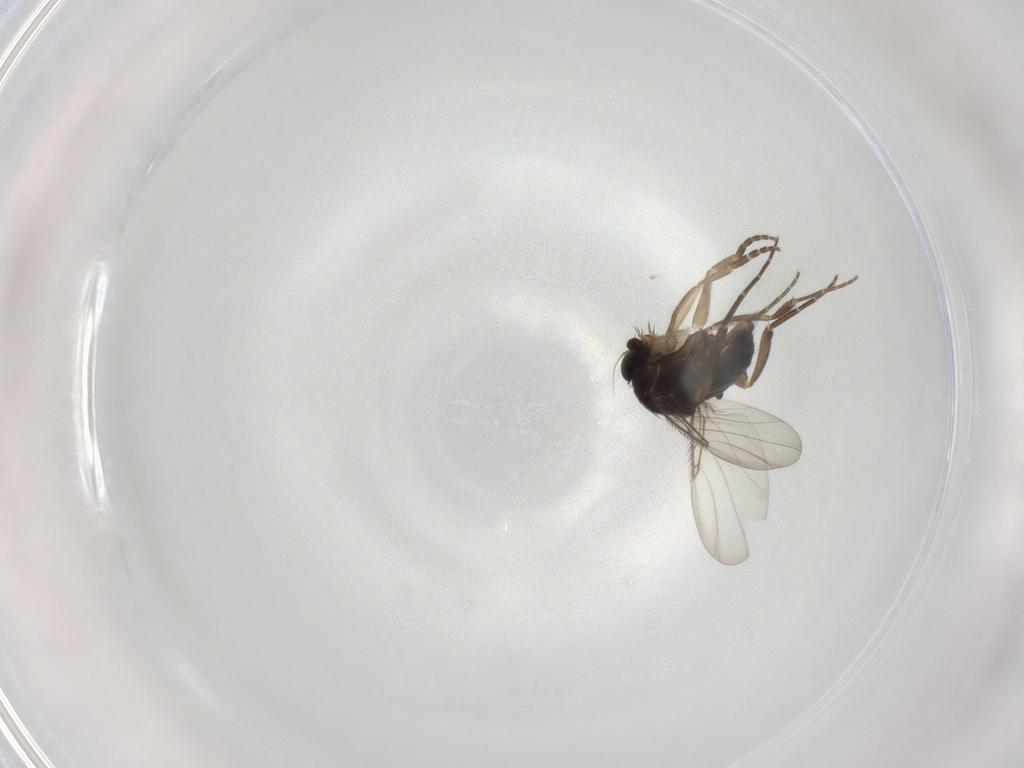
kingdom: Animalia
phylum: Arthropoda
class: Insecta
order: Diptera
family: Phoridae
